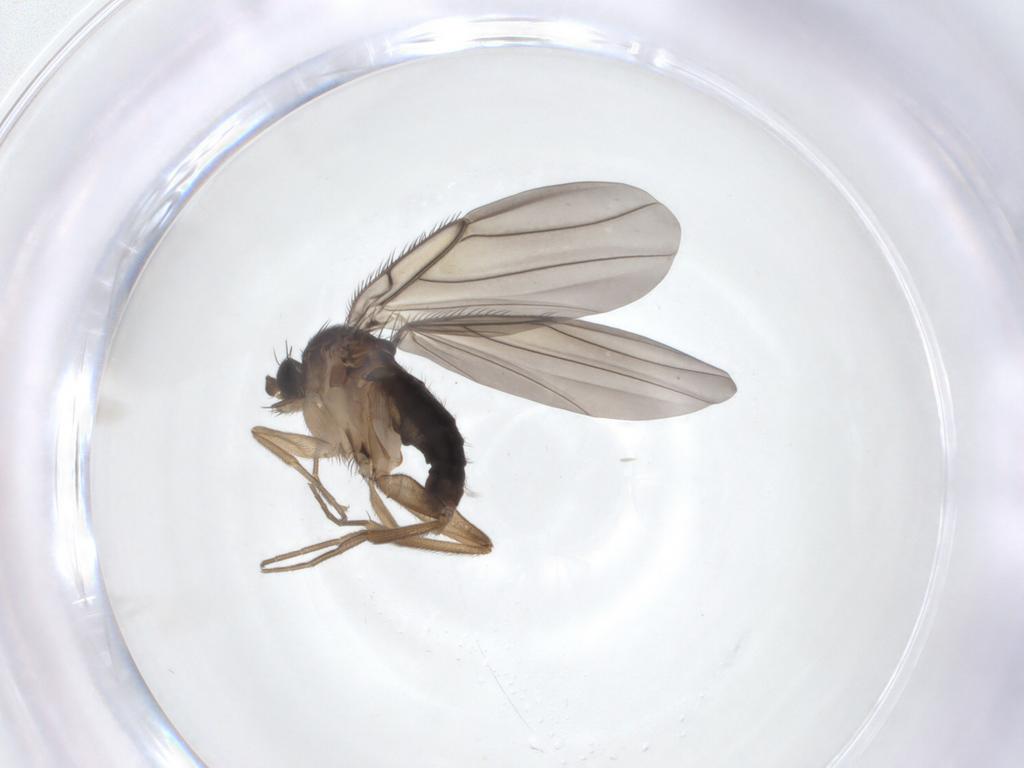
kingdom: Animalia
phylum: Arthropoda
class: Insecta
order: Diptera
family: Phoridae
